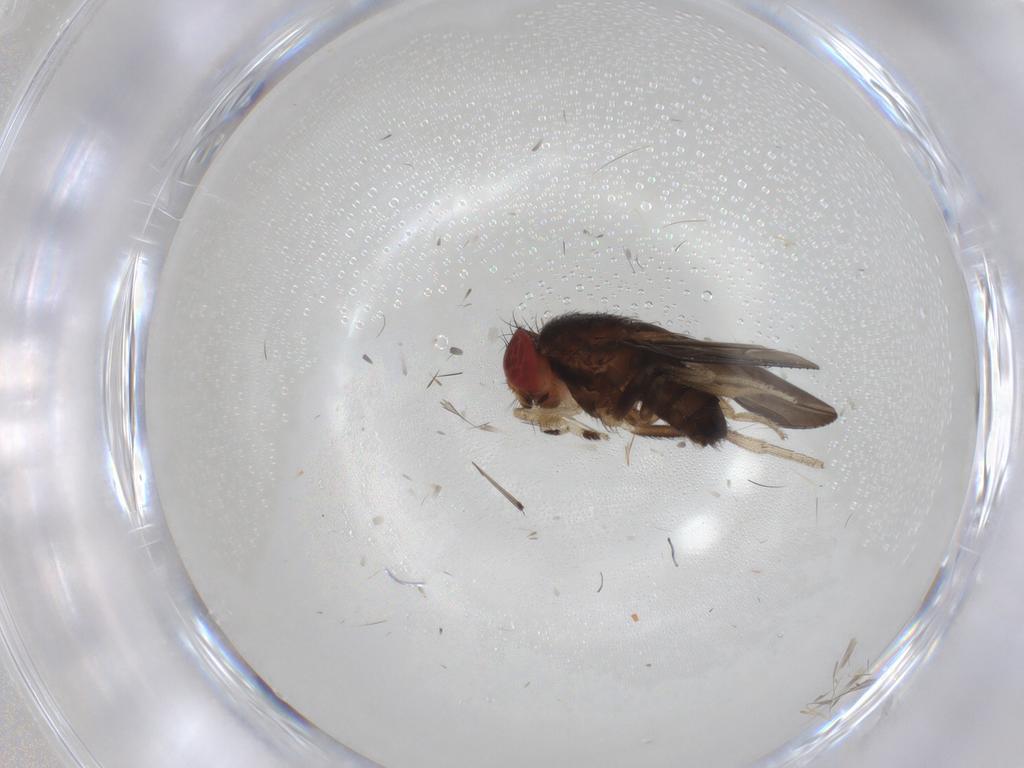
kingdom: Animalia
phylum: Arthropoda
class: Insecta
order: Diptera
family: Drosophilidae
